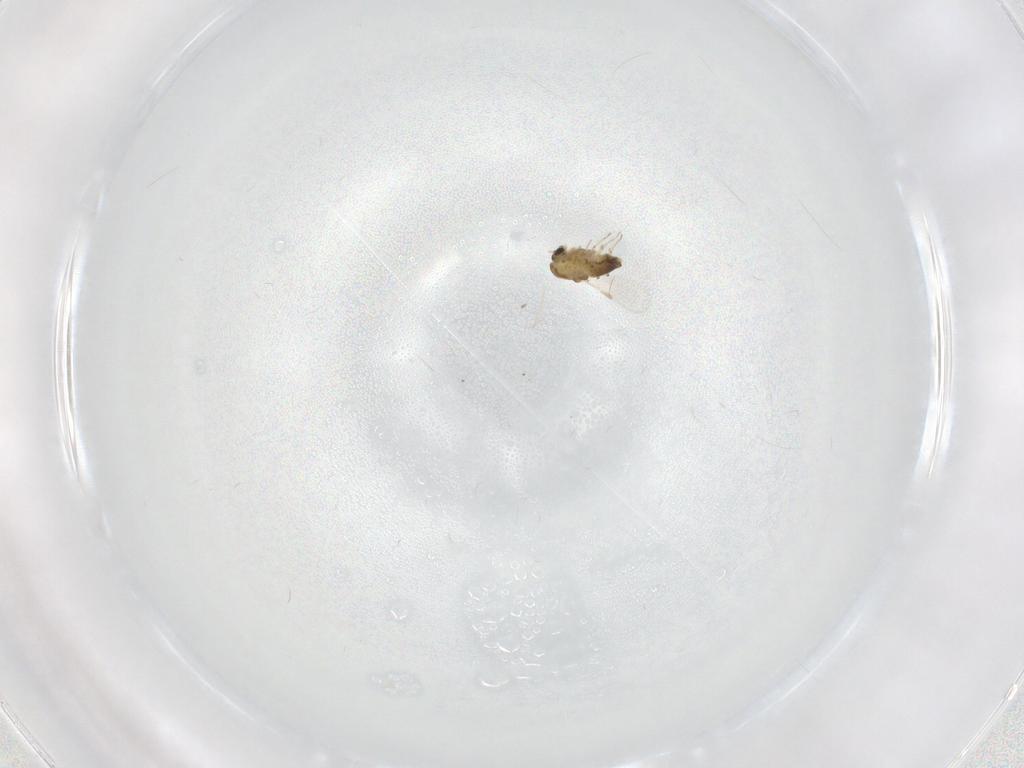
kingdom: Animalia
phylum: Arthropoda
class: Insecta
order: Diptera
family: Chironomidae
